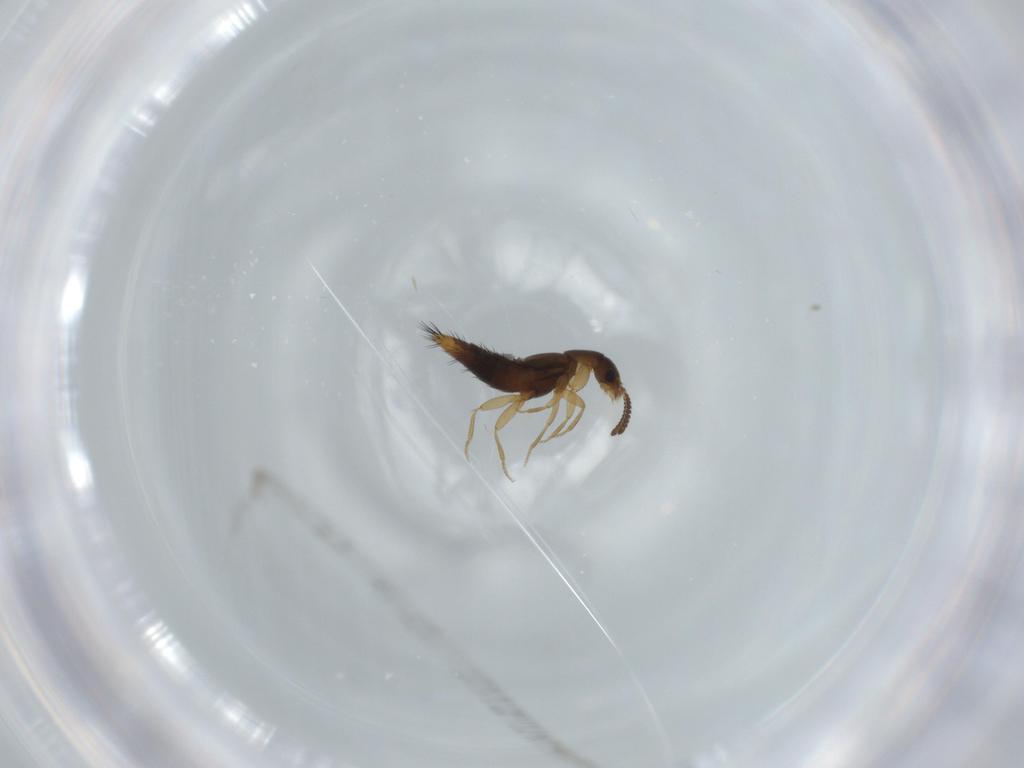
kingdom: Animalia
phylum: Arthropoda
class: Insecta
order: Coleoptera
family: Staphylinidae
